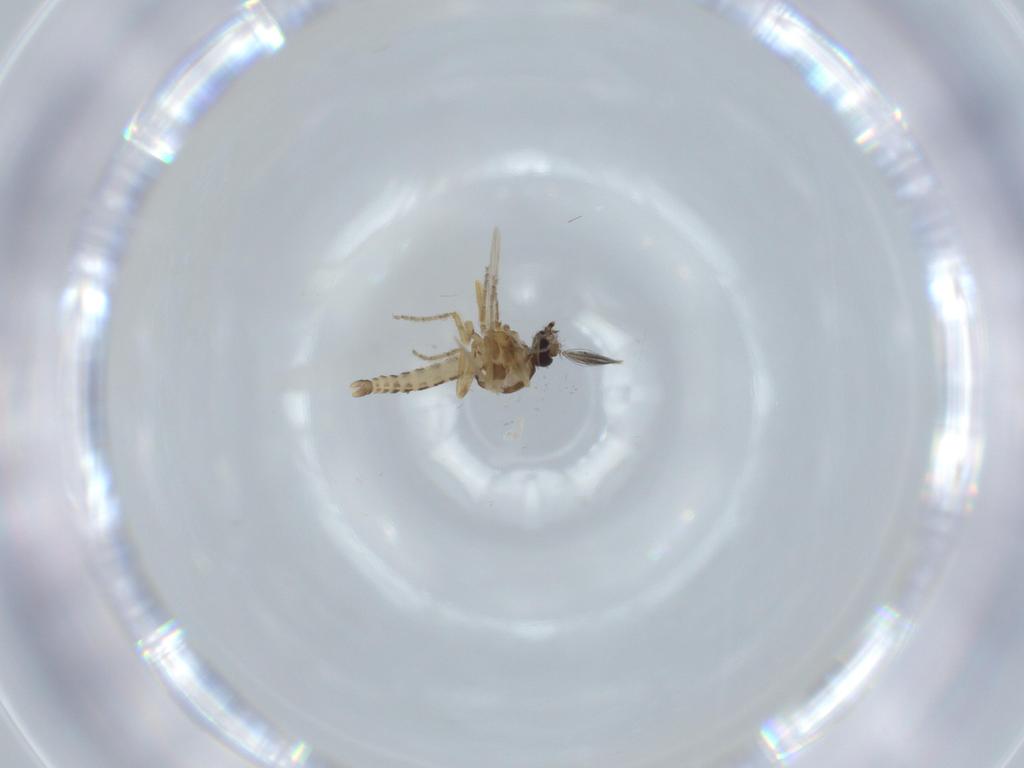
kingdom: Animalia
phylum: Arthropoda
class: Insecta
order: Diptera
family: Ceratopogonidae
